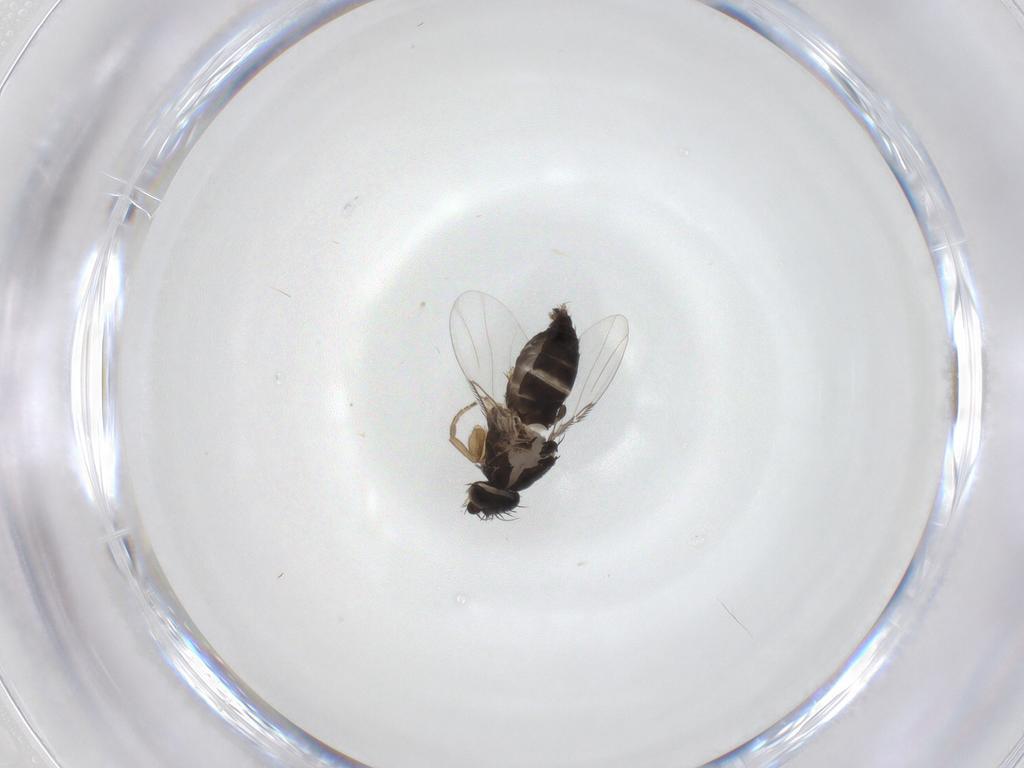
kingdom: Animalia
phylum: Arthropoda
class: Insecta
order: Diptera
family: Phoridae
